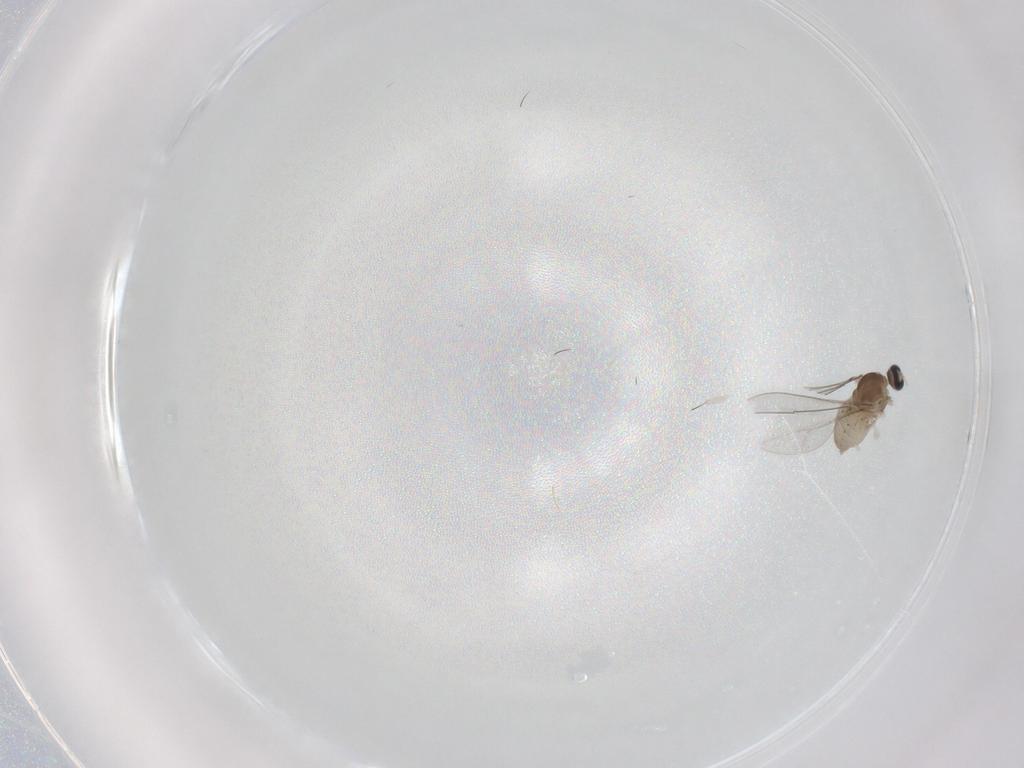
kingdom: Animalia
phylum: Arthropoda
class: Insecta
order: Diptera
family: Cecidomyiidae
